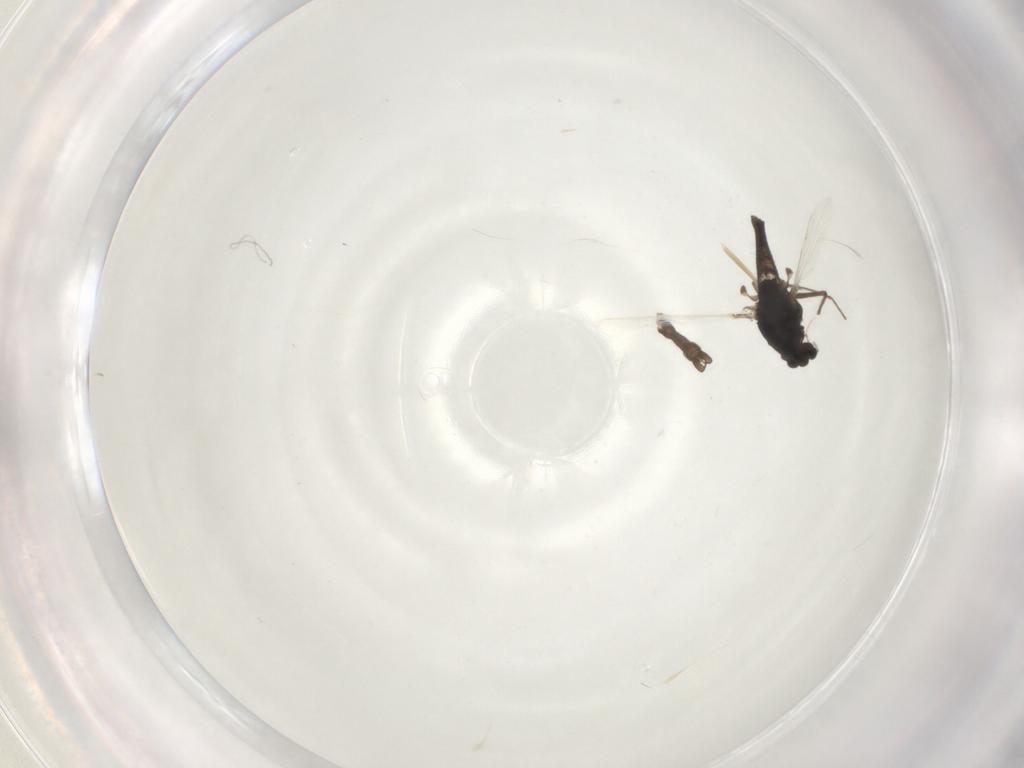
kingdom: Animalia
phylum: Arthropoda
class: Insecta
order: Diptera
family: Chironomidae
